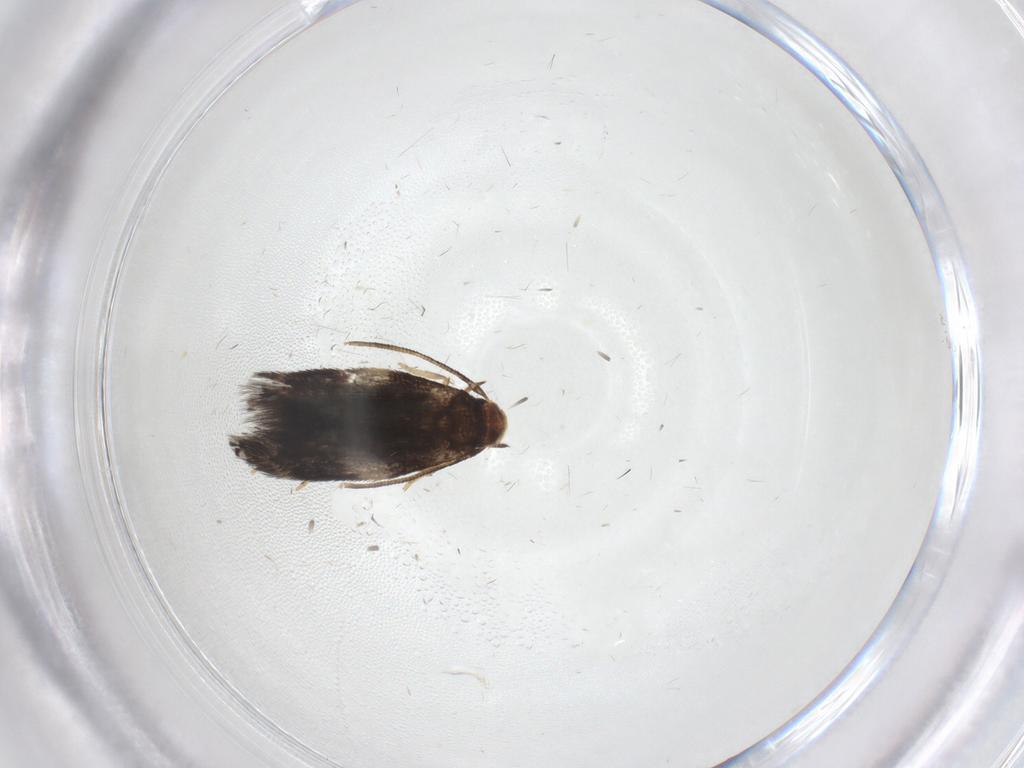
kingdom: Animalia
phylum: Arthropoda
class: Insecta
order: Lepidoptera
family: Gelechiidae
